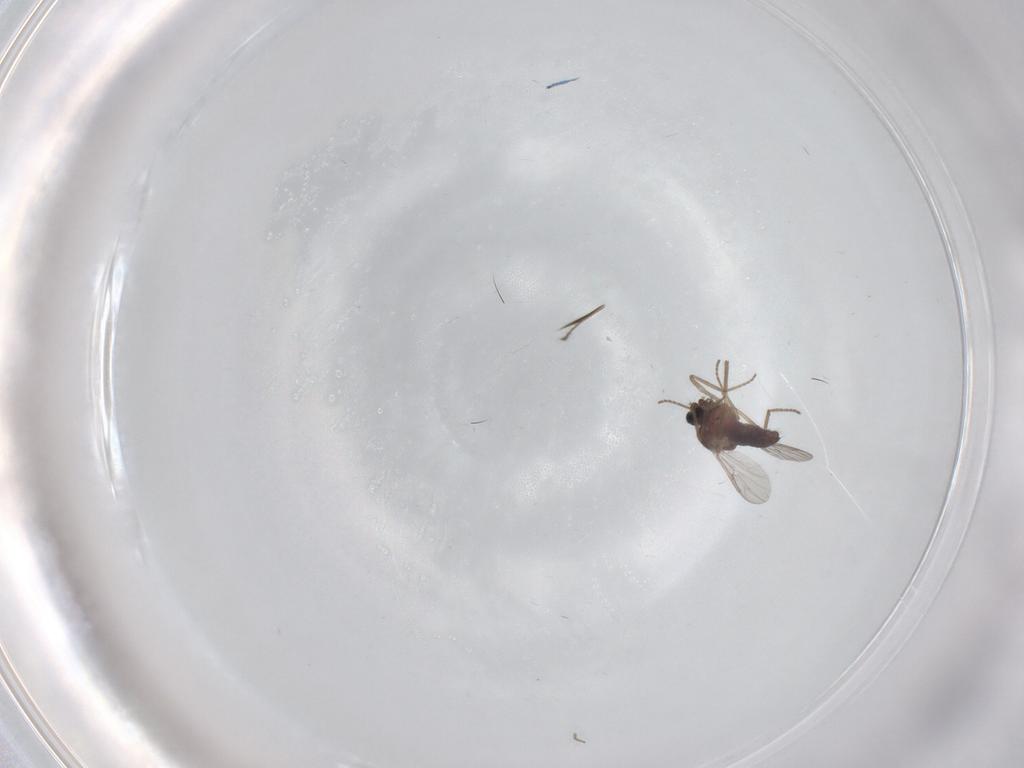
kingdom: Animalia
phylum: Arthropoda
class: Insecta
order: Diptera
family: Ceratopogonidae
